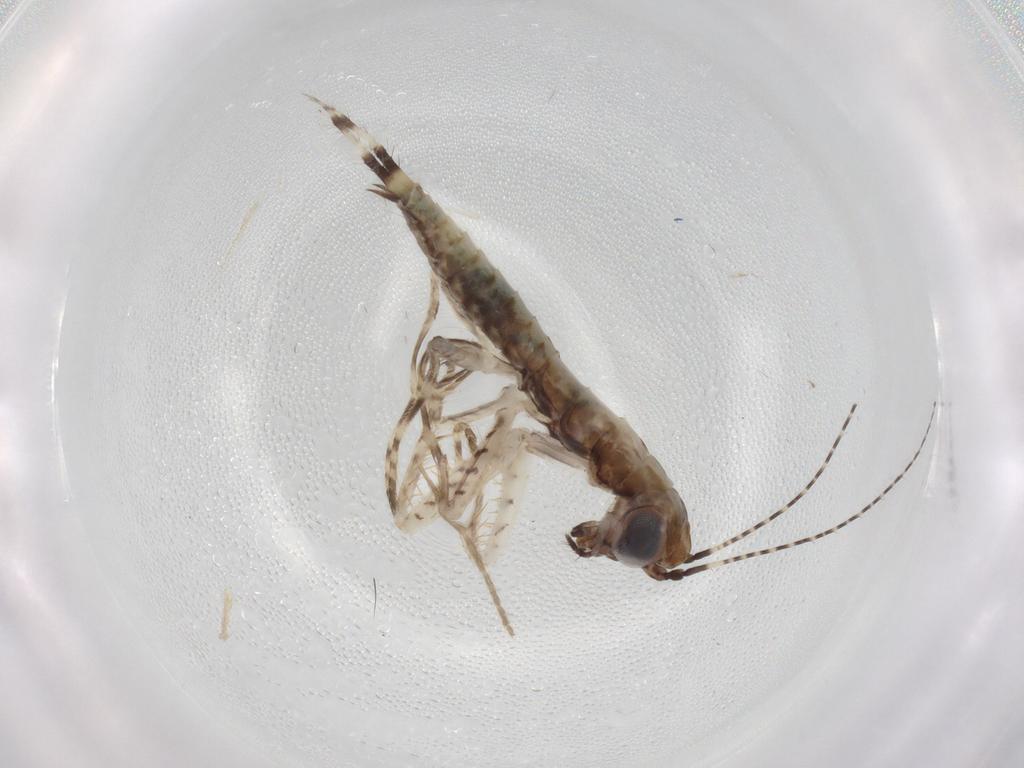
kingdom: Animalia
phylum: Arthropoda
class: Insecta
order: Mantodea
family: Mantidae
